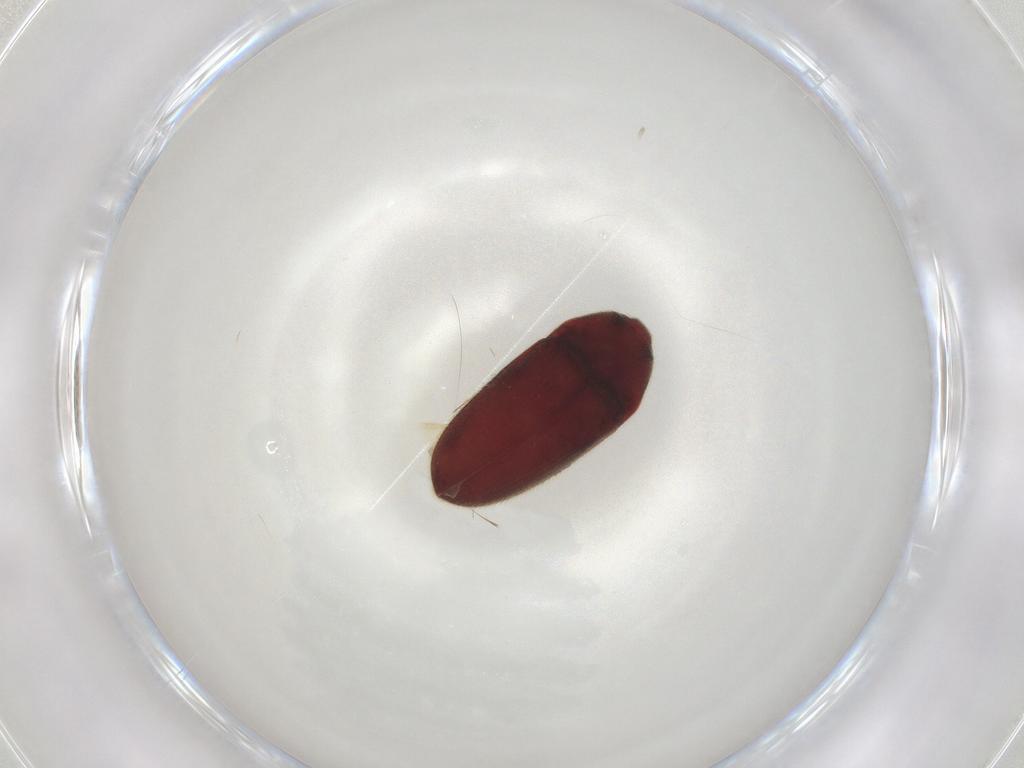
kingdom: Animalia
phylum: Arthropoda
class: Insecta
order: Coleoptera
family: Throscidae
